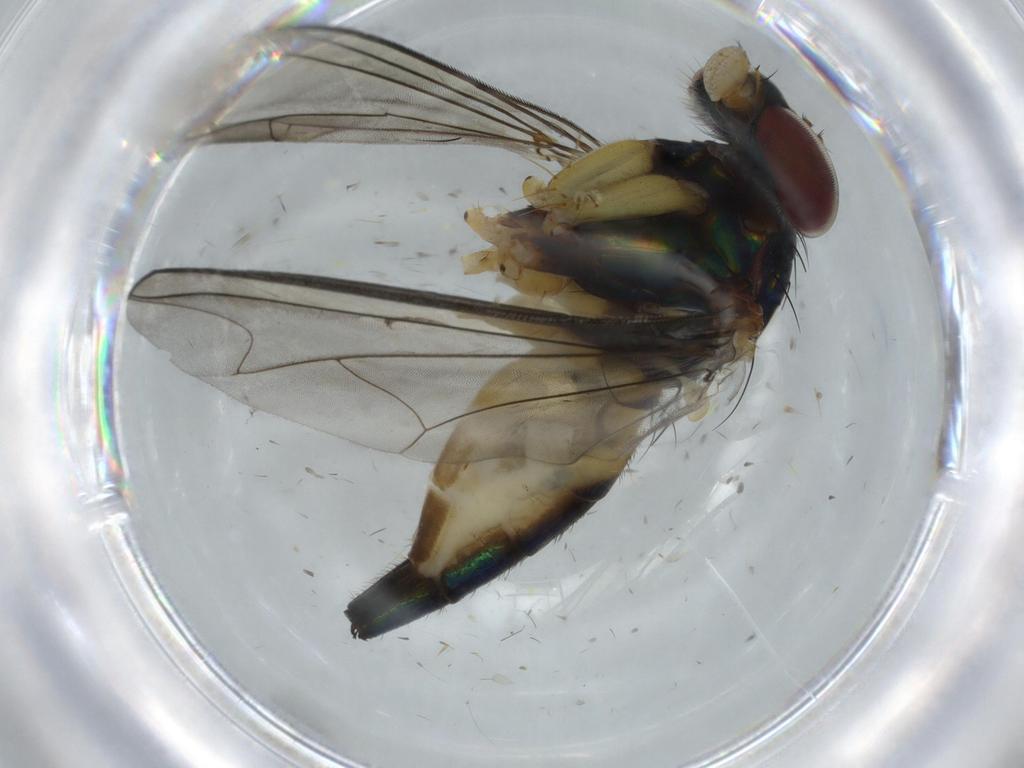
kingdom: Animalia
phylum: Arthropoda
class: Insecta
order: Diptera
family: Dolichopodidae
